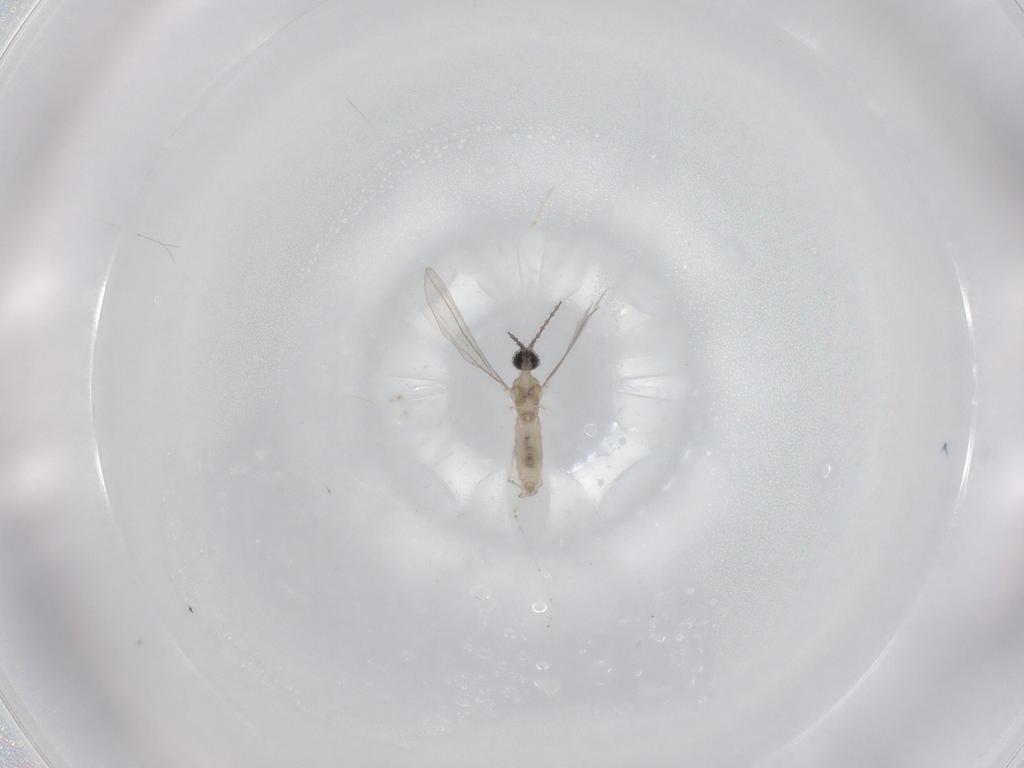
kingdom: Animalia
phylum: Arthropoda
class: Insecta
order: Diptera
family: Cecidomyiidae
